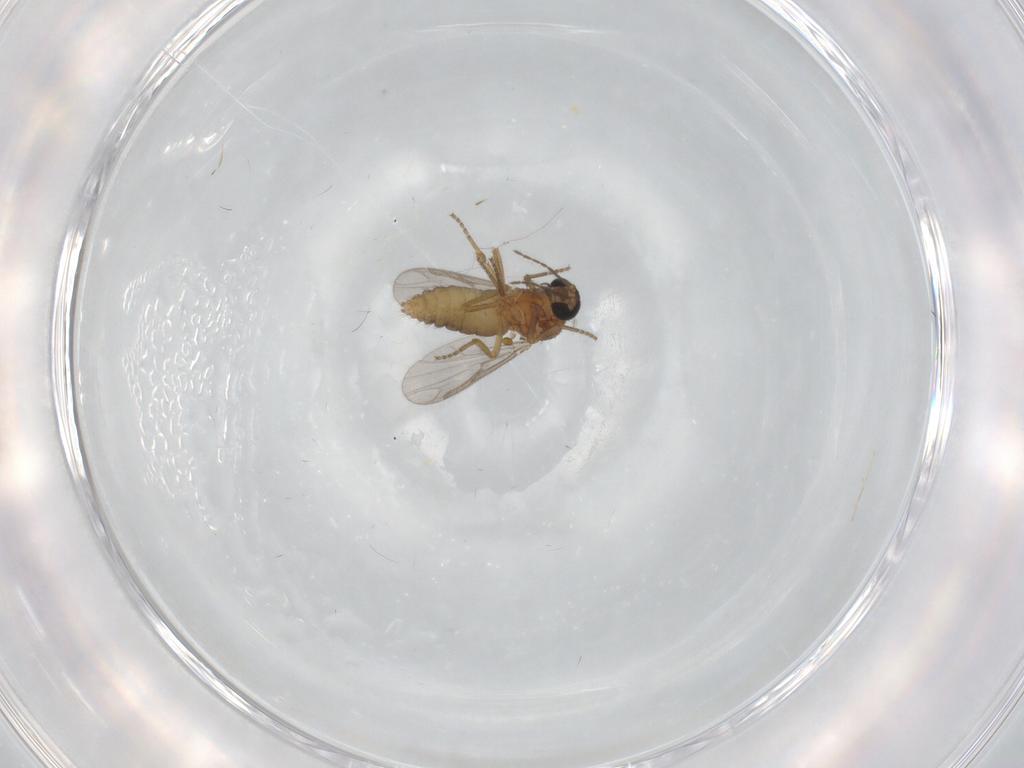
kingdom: Animalia
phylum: Arthropoda
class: Insecta
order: Diptera
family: Ceratopogonidae
